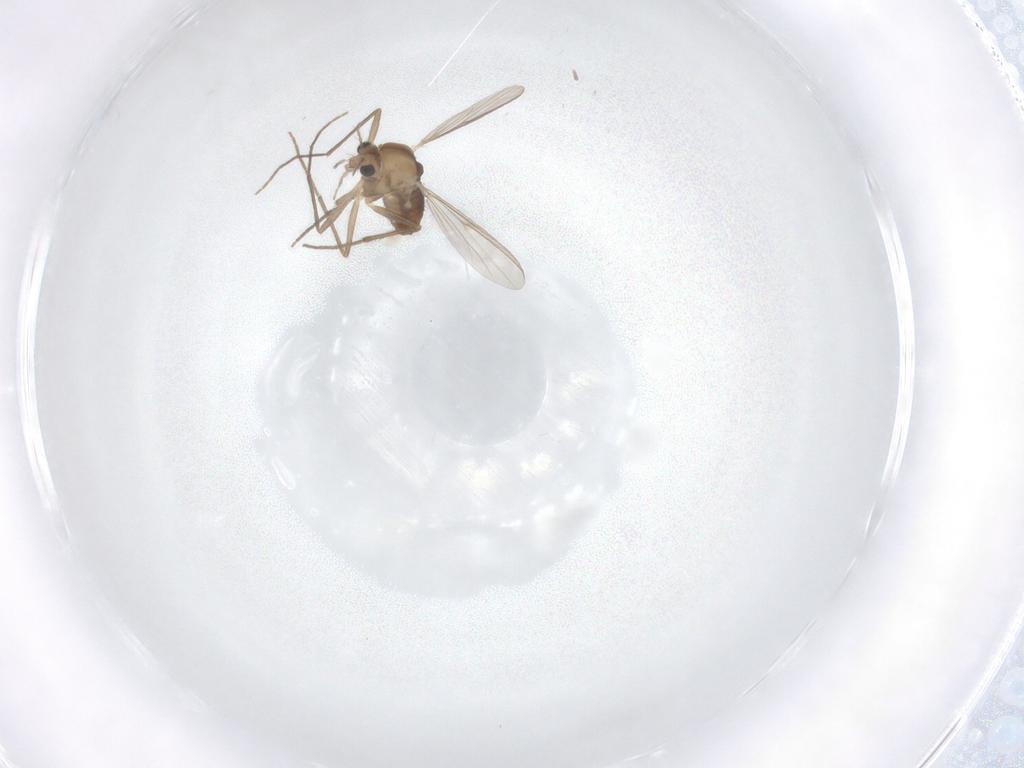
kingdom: Animalia
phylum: Arthropoda
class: Insecta
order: Diptera
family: Chironomidae
